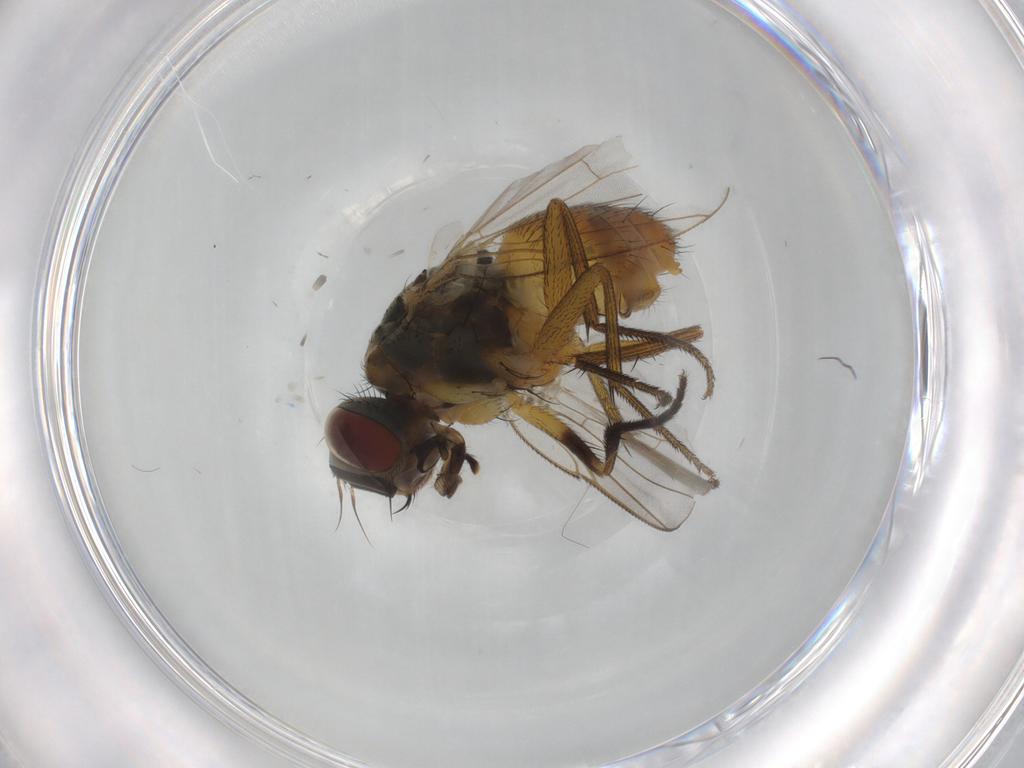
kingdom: Animalia
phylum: Arthropoda
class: Insecta
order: Diptera
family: Muscidae
